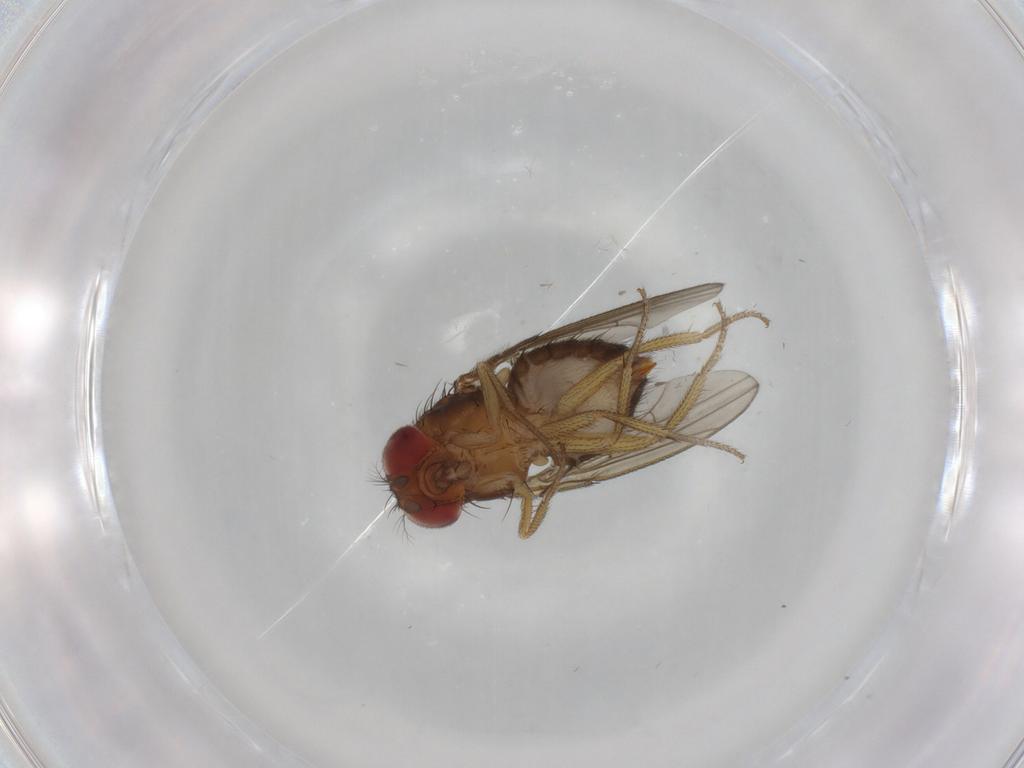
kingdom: Animalia
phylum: Arthropoda
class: Insecta
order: Diptera
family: Drosophilidae
